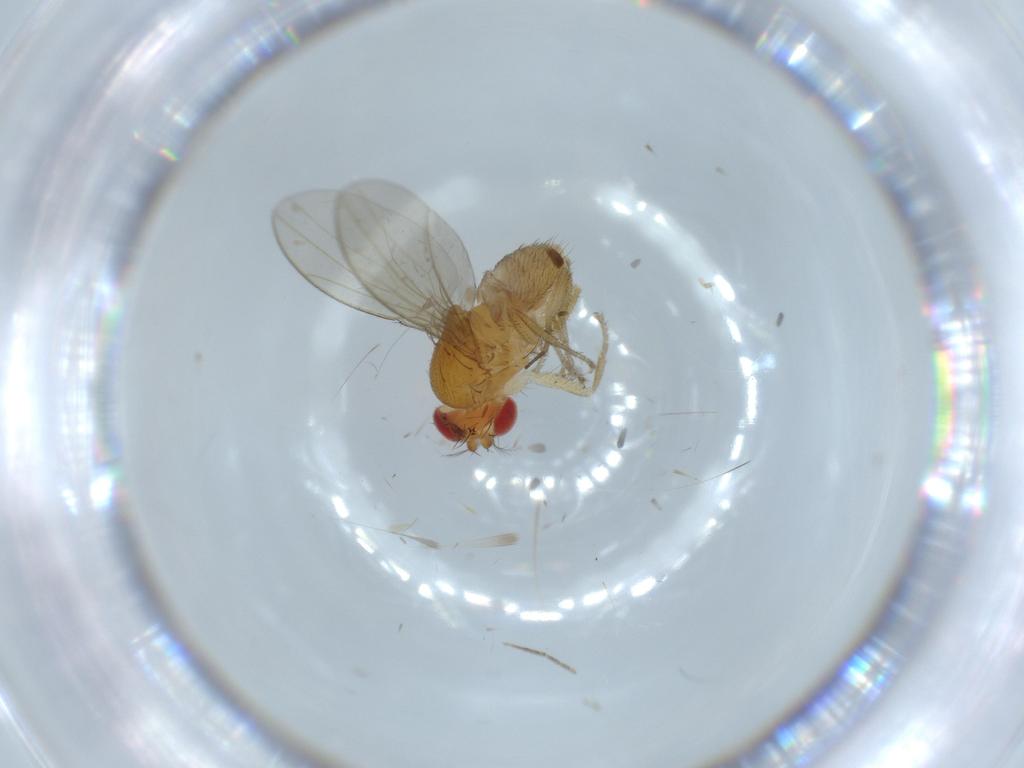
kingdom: Animalia
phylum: Arthropoda
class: Insecta
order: Diptera
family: Drosophilidae
